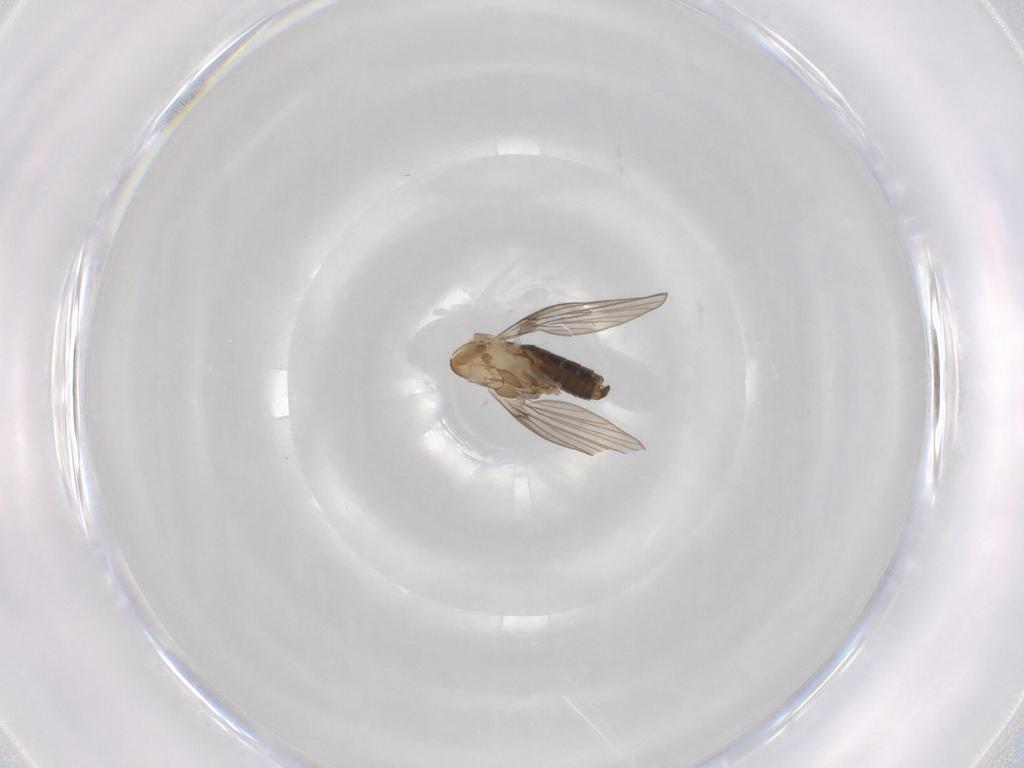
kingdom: Animalia
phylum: Arthropoda
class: Insecta
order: Diptera
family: Psychodidae
